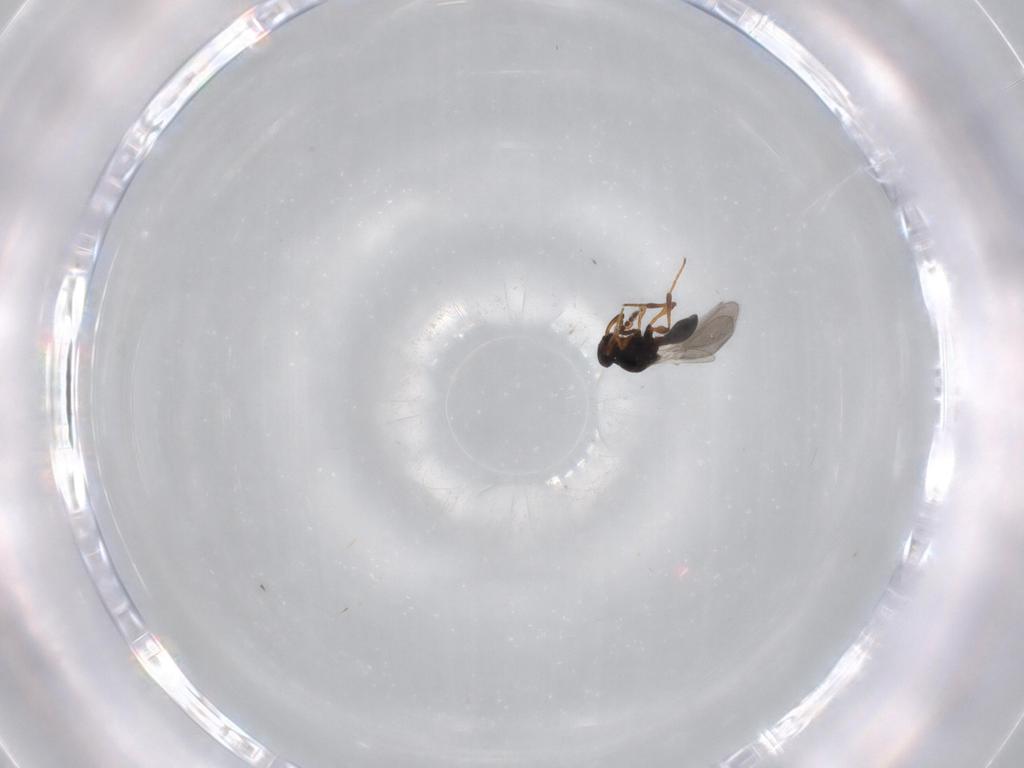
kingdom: Animalia
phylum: Arthropoda
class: Insecta
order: Hymenoptera
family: Platygastridae
